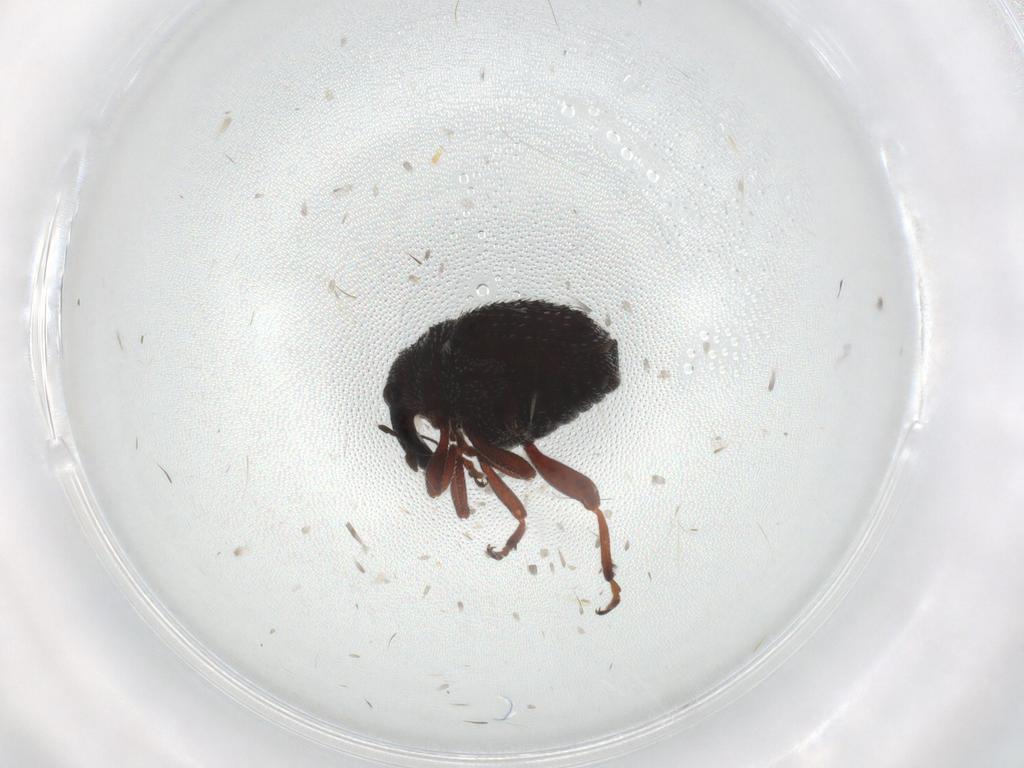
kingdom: Animalia
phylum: Arthropoda
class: Insecta
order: Coleoptera
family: Curculionidae
